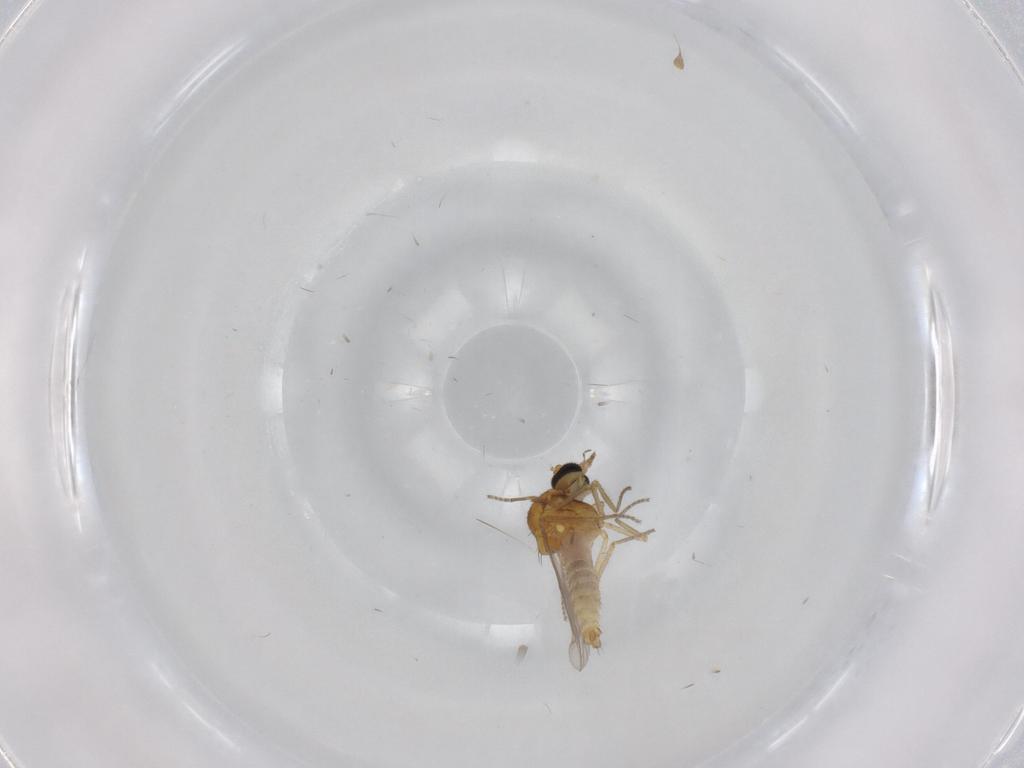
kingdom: Animalia
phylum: Arthropoda
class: Insecta
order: Diptera
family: Ceratopogonidae
